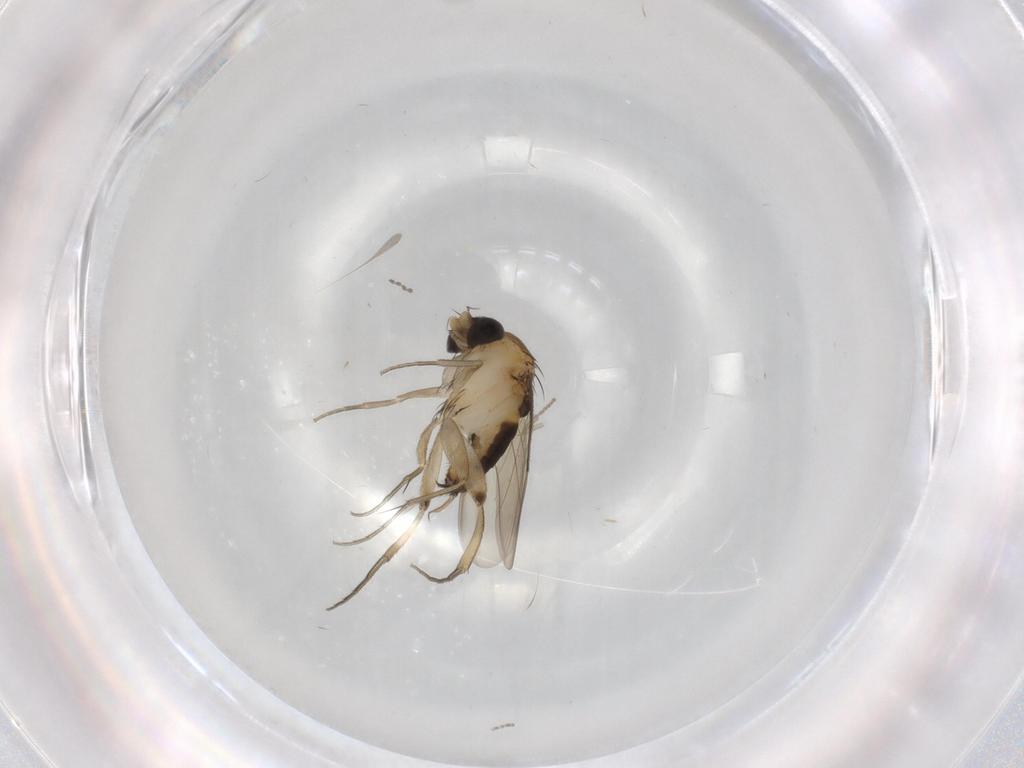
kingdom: Animalia
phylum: Arthropoda
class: Insecta
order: Diptera
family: Phoridae
